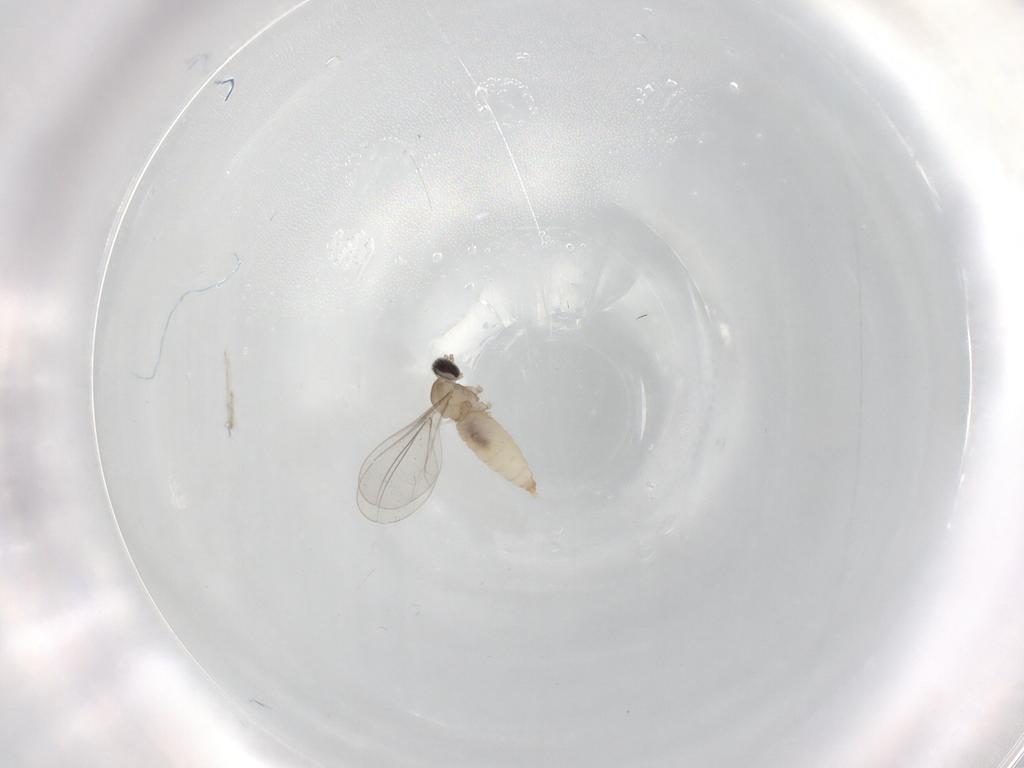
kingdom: Animalia
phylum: Arthropoda
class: Insecta
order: Diptera
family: Cecidomyiidae
